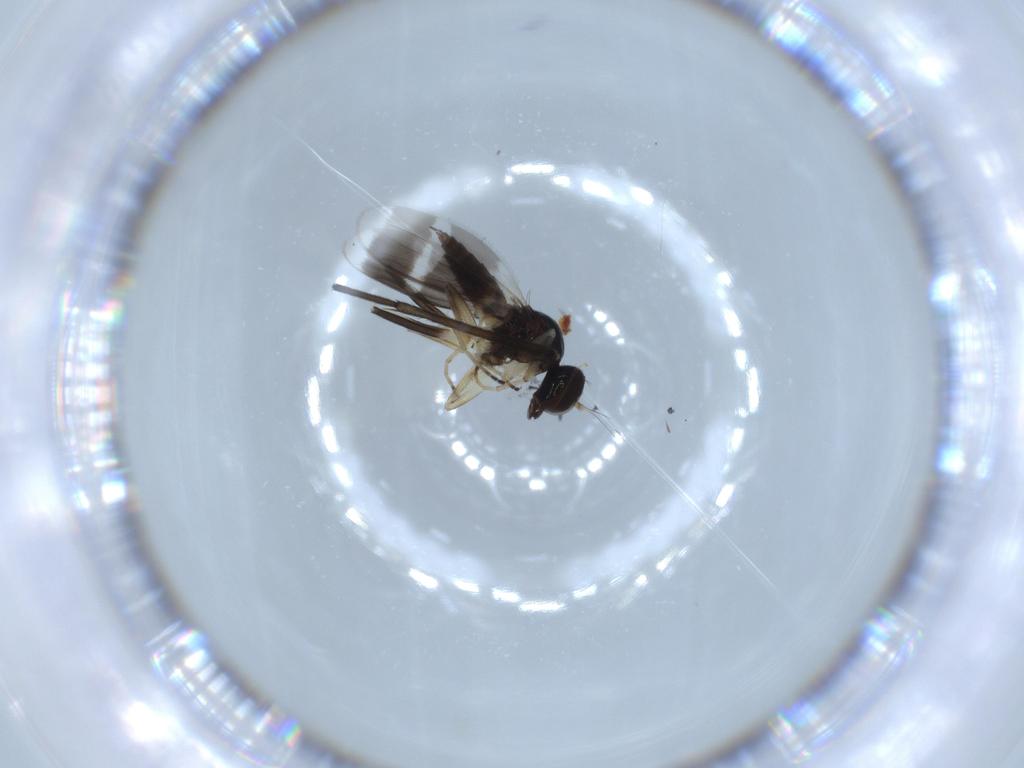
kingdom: Animalia
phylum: Arthropoda
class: Insecta
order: Diptera
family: Sciaridae
